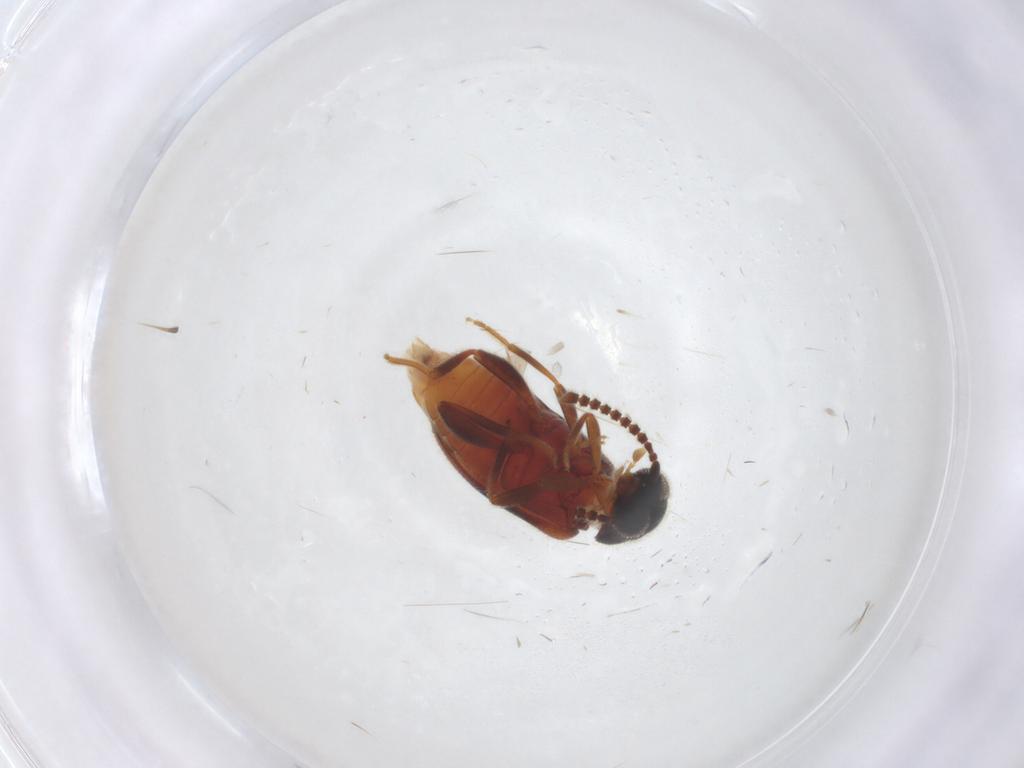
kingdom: Animalia
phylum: Arthropoda
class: Insecta
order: Coleoptera
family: Aderidae
